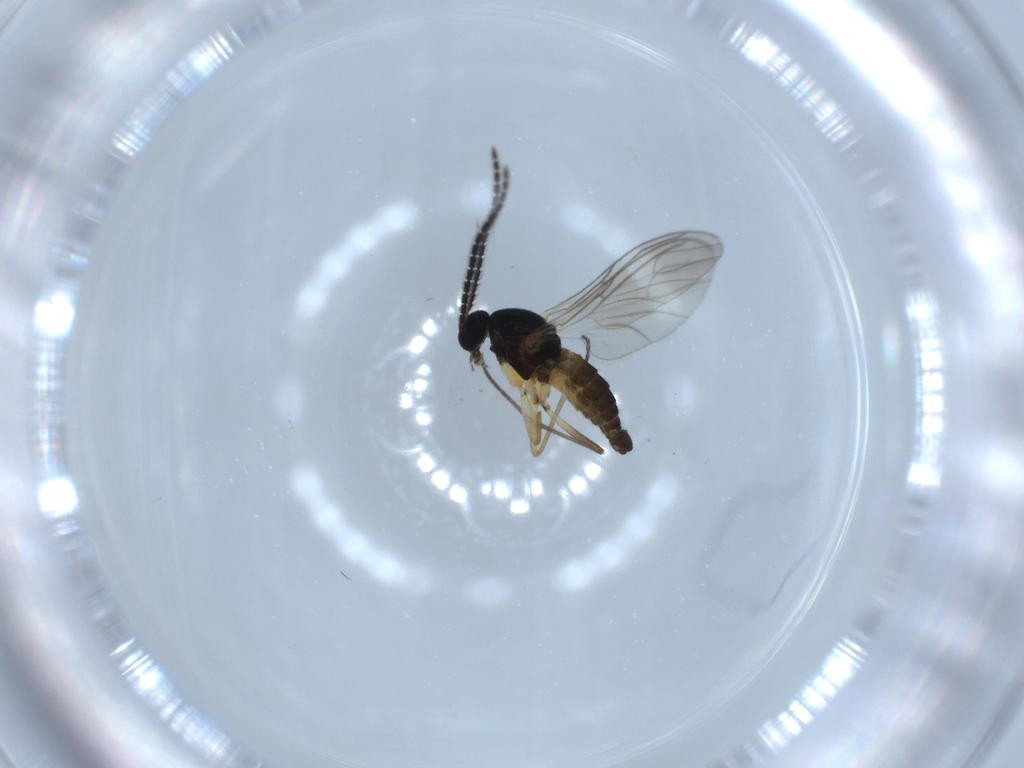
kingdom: Animalia
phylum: Arthropoda
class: Insecta
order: Diptera
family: Sciaridae
